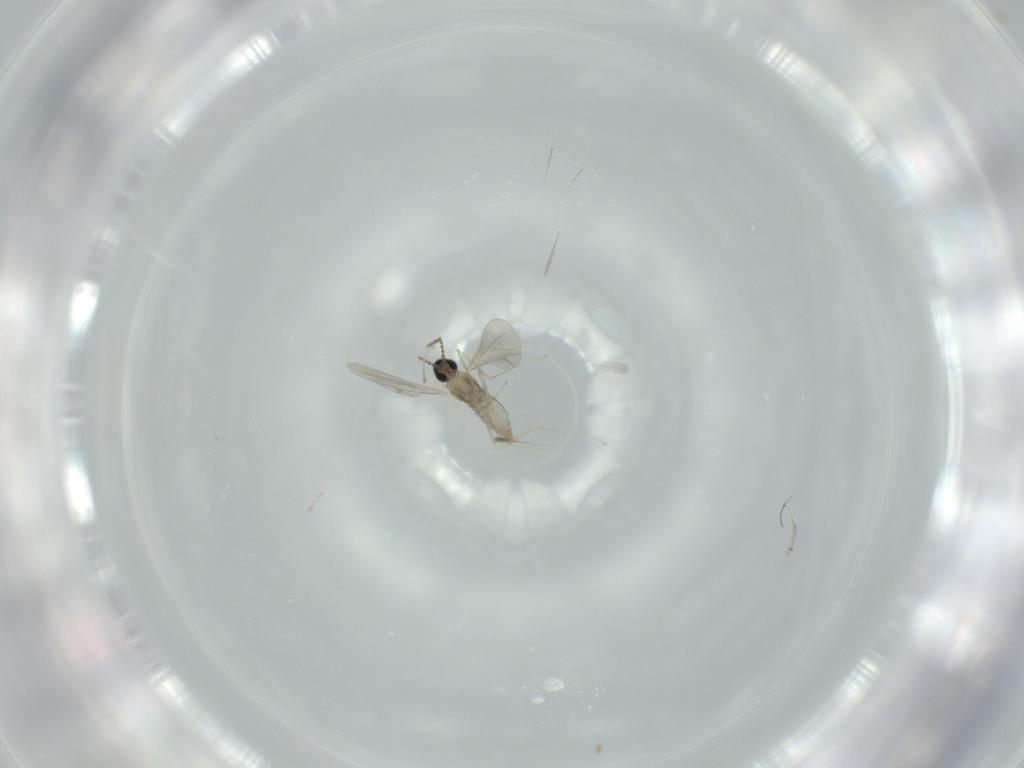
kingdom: Animalia
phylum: Arthropoda
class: Insecta
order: Diptera
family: Cecidomyiidae
